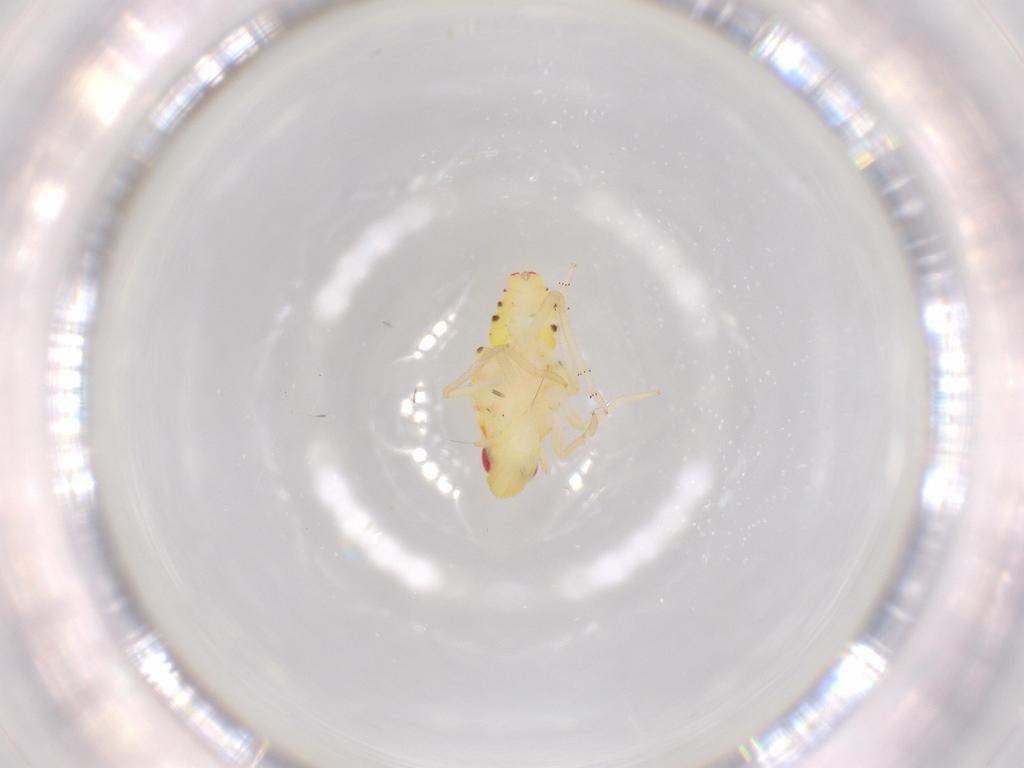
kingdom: Animalia
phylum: Arthropoda
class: Insecta
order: Hemiptera
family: Tropiduchidae
